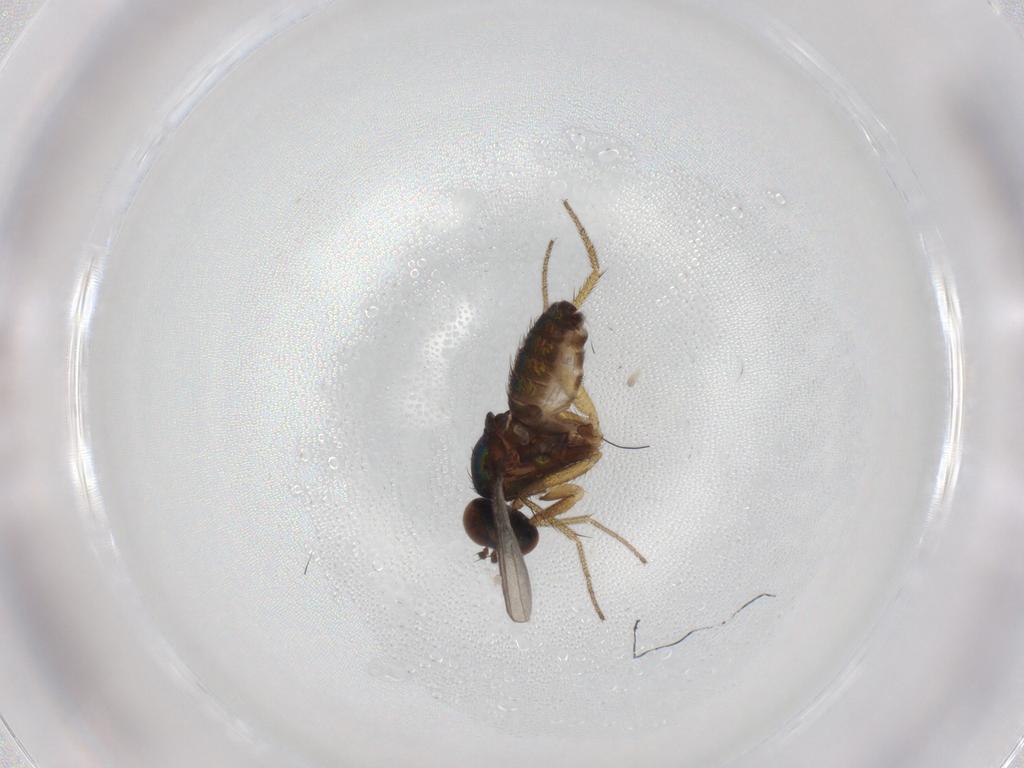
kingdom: Animalia
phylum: Arthropoda
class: Insecta
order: Diptera
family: Dolichopodidae
